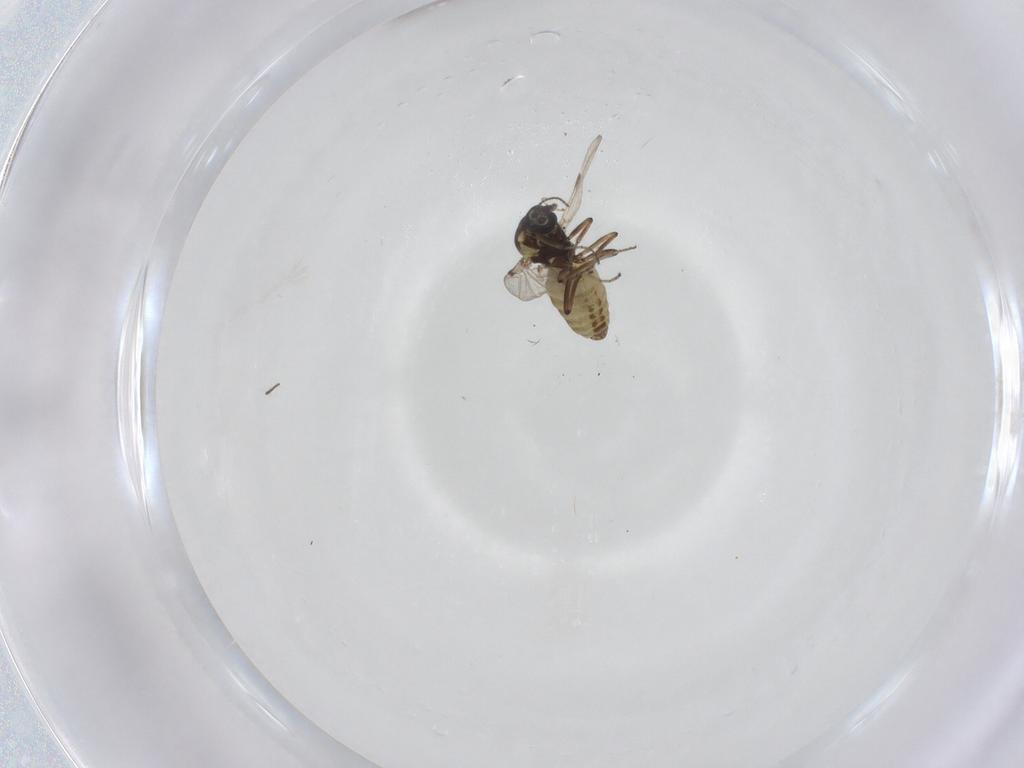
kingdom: Animalia
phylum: Arthropoda
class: Insecta
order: Diptera
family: Ceratopogonidae
